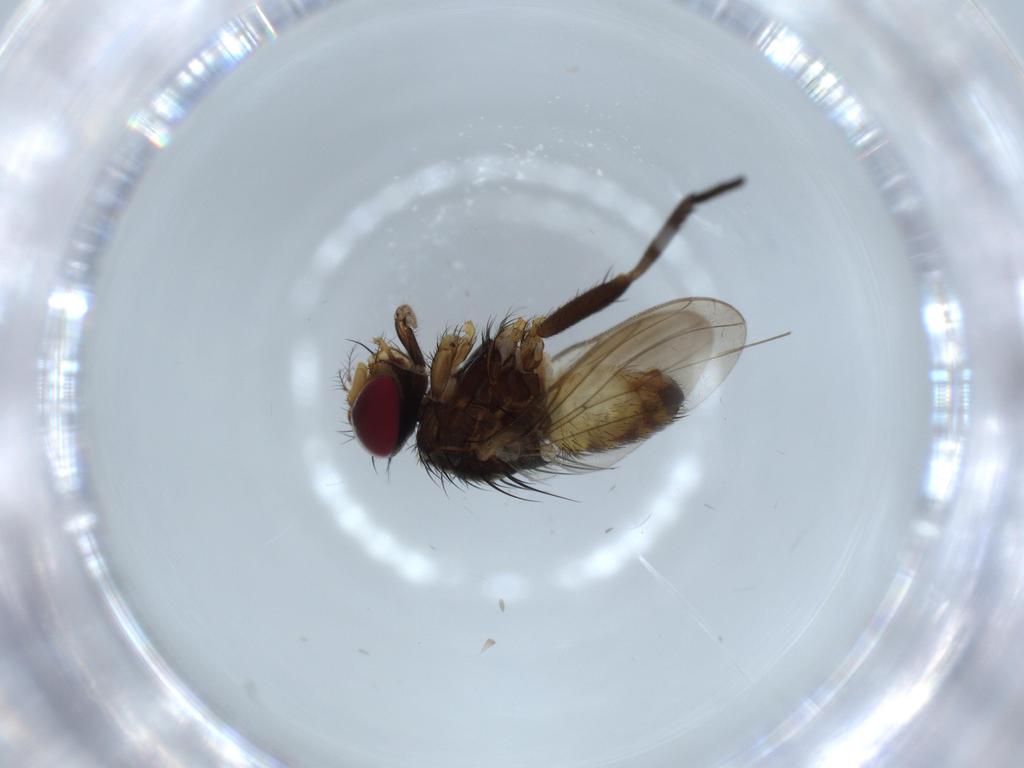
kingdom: Animalia
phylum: Arthropoda
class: Insecta
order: Diptera
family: Anthomyiidae
